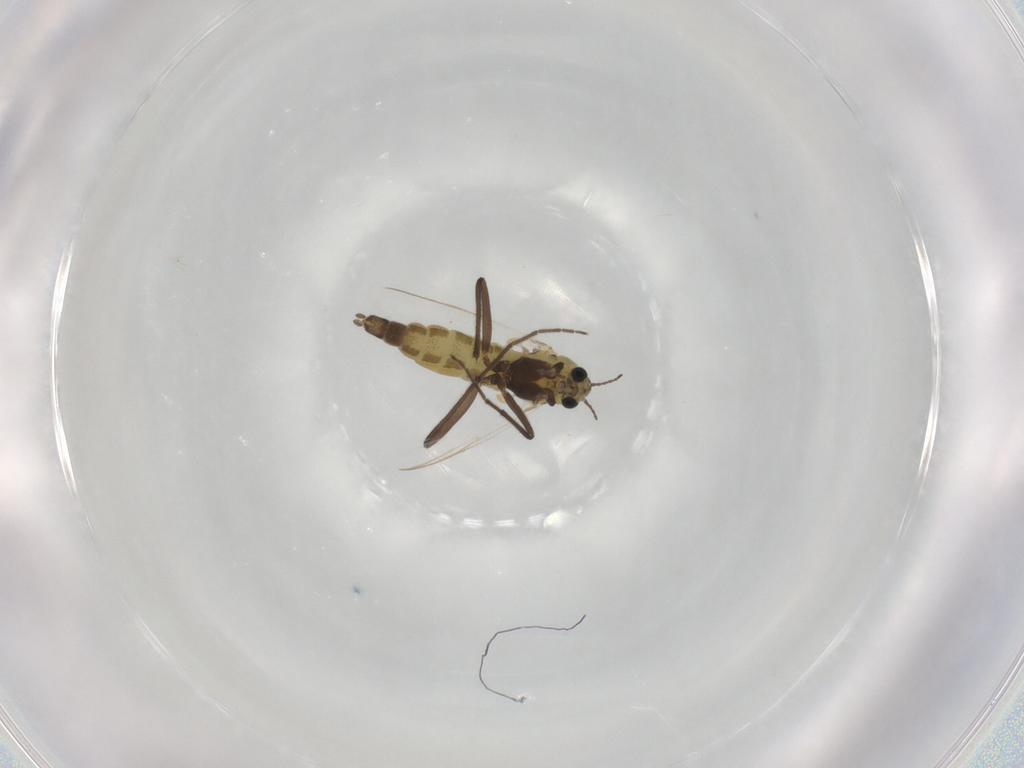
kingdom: Animalia
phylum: Arthropoda
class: Insecta
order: Diptera
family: Chironomidae
